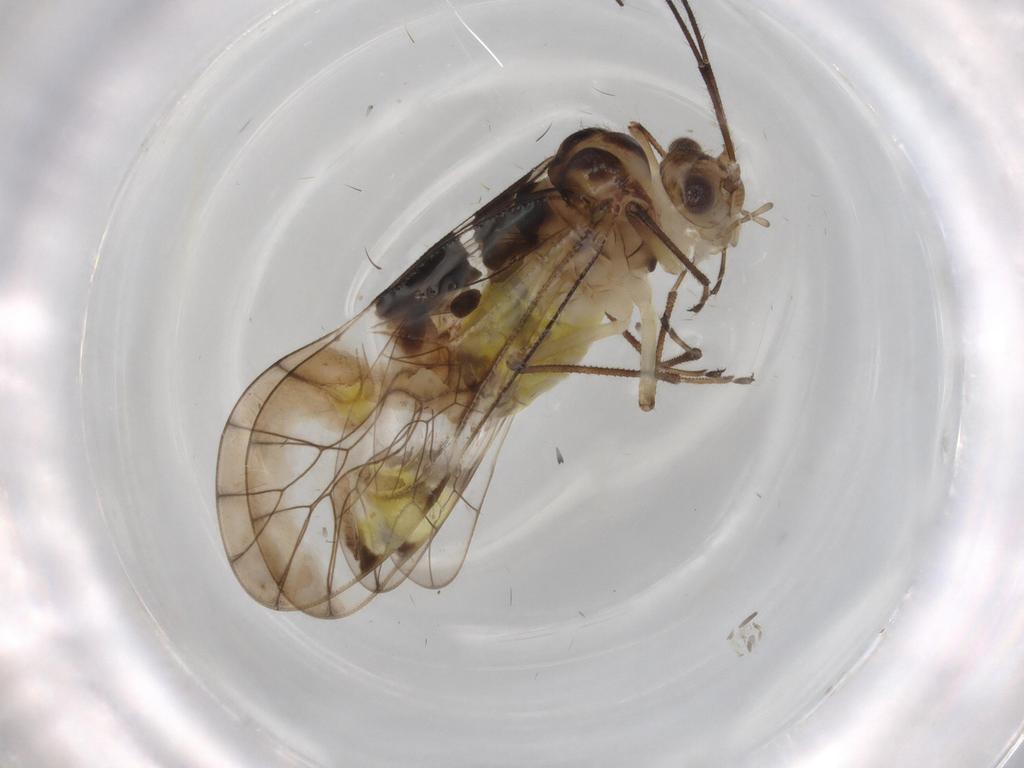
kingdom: Animalia
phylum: Arthropoda
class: Insecta
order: Psocodea
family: Amphipsocidae
